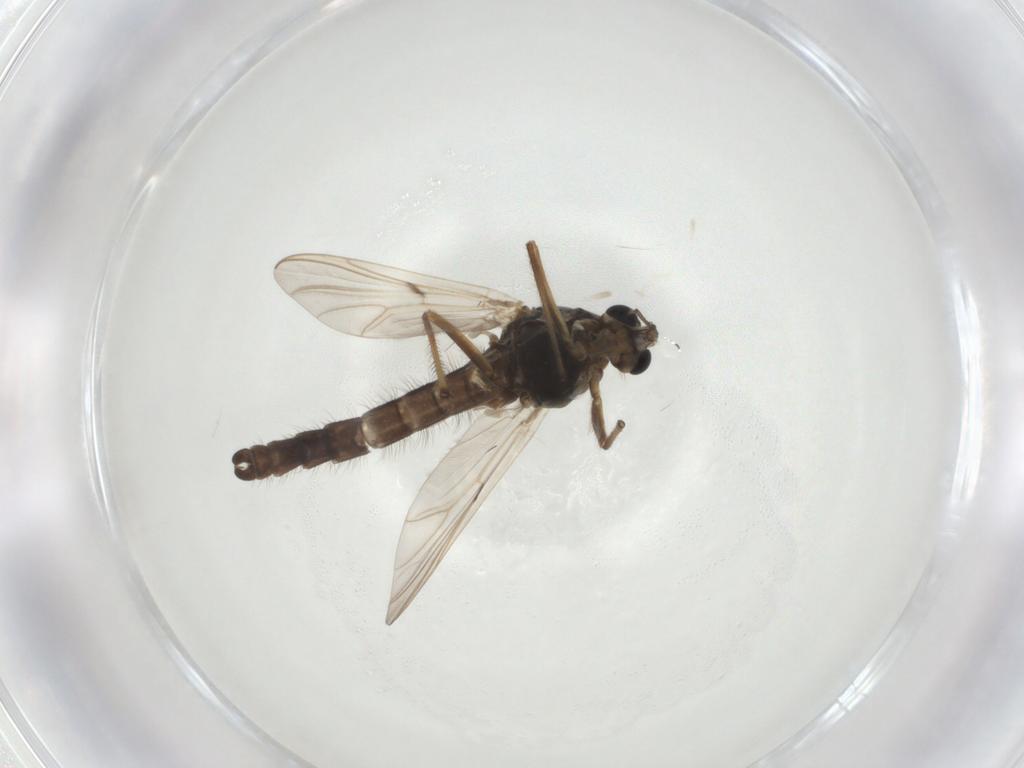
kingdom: Animalia
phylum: Arthropoda
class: Insecta
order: Diptera
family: Chironomidae
